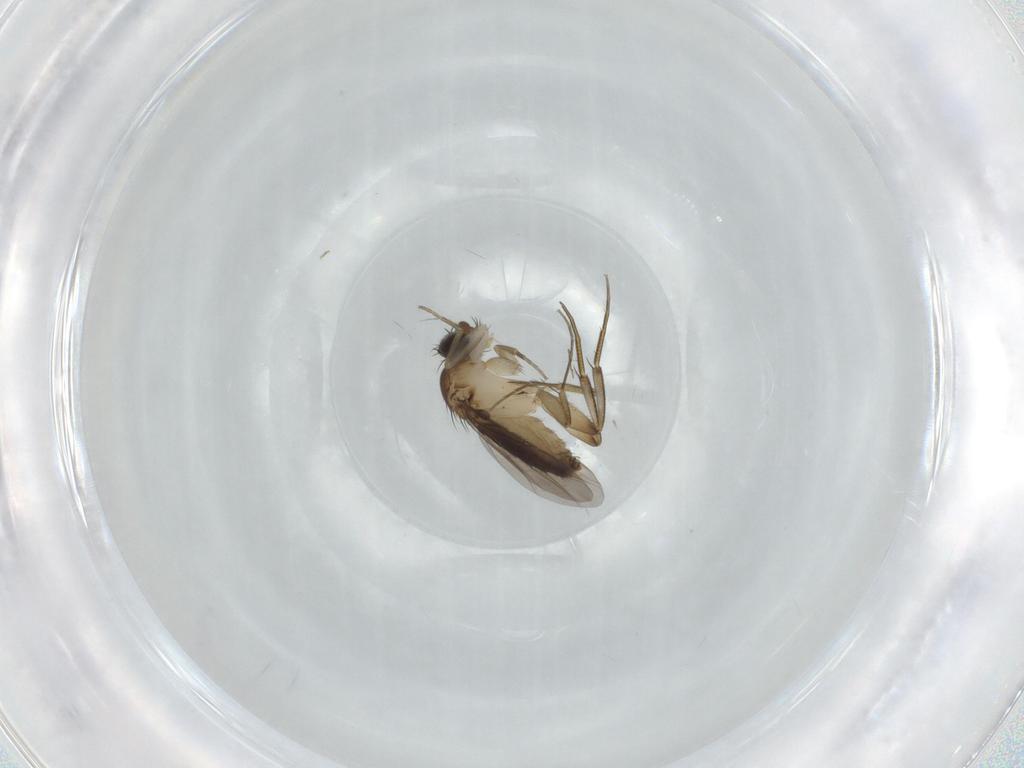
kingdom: Animalia
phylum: Arthropoda
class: Insecta
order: Diptera
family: Phoridae
